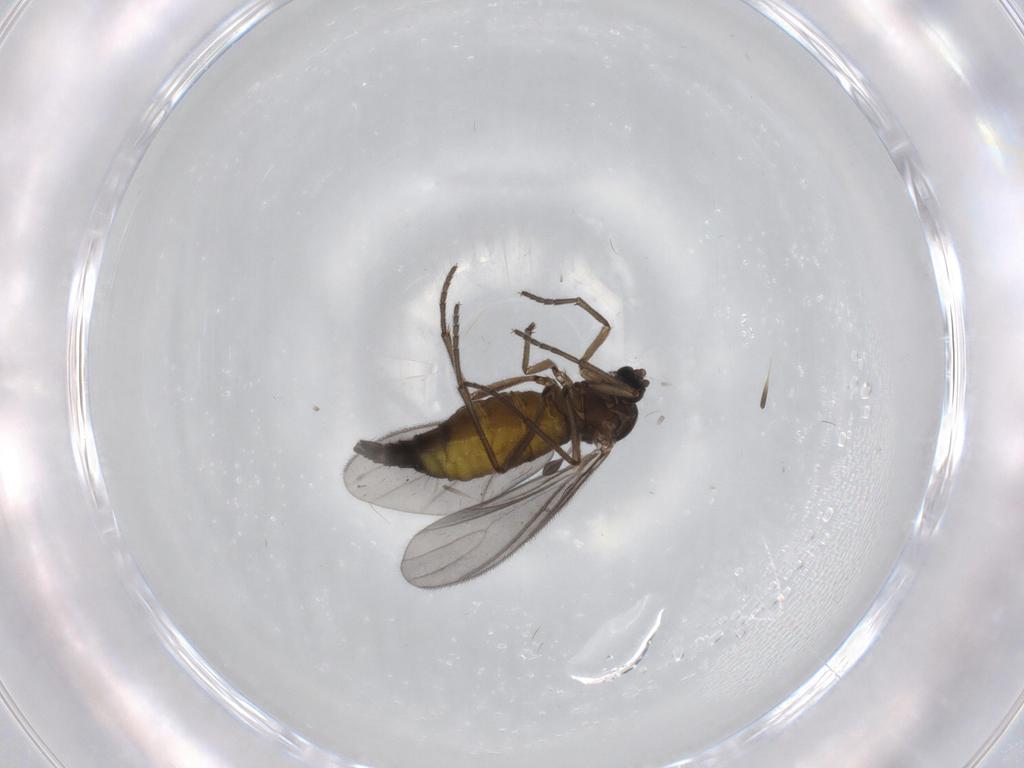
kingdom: Animalia
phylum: Arthropoda
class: Insecta
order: Diptera
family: Sciaridae
